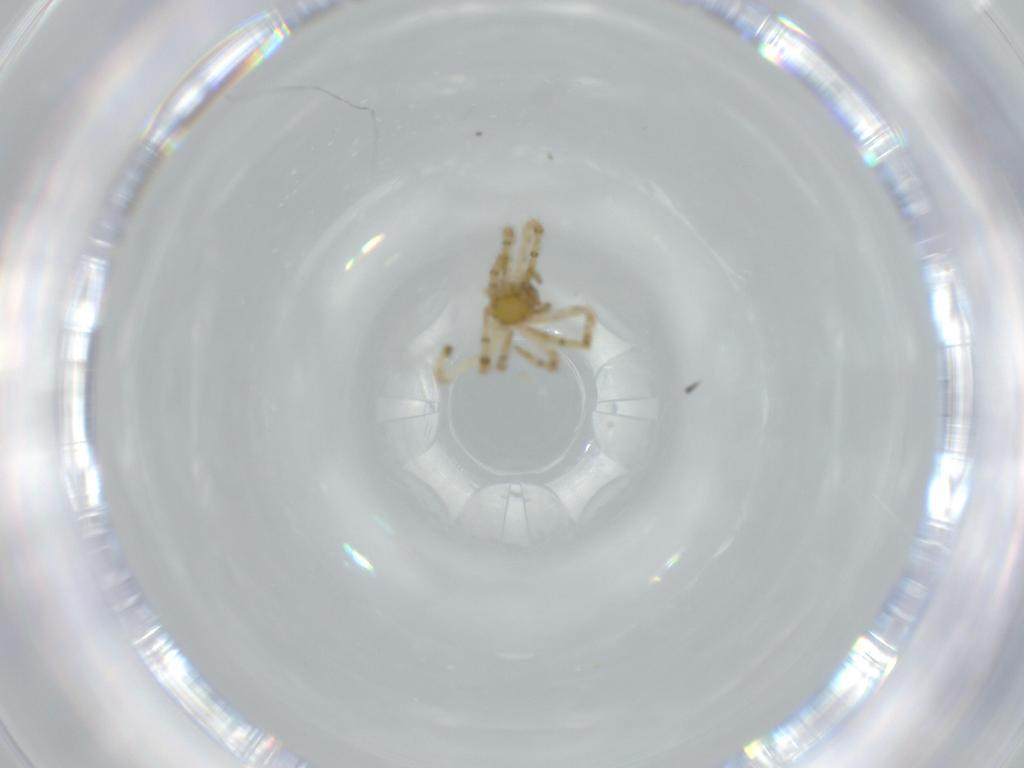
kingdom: Animalia
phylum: Arthropoda
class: Arachnida
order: Araneae
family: Theridiidae
